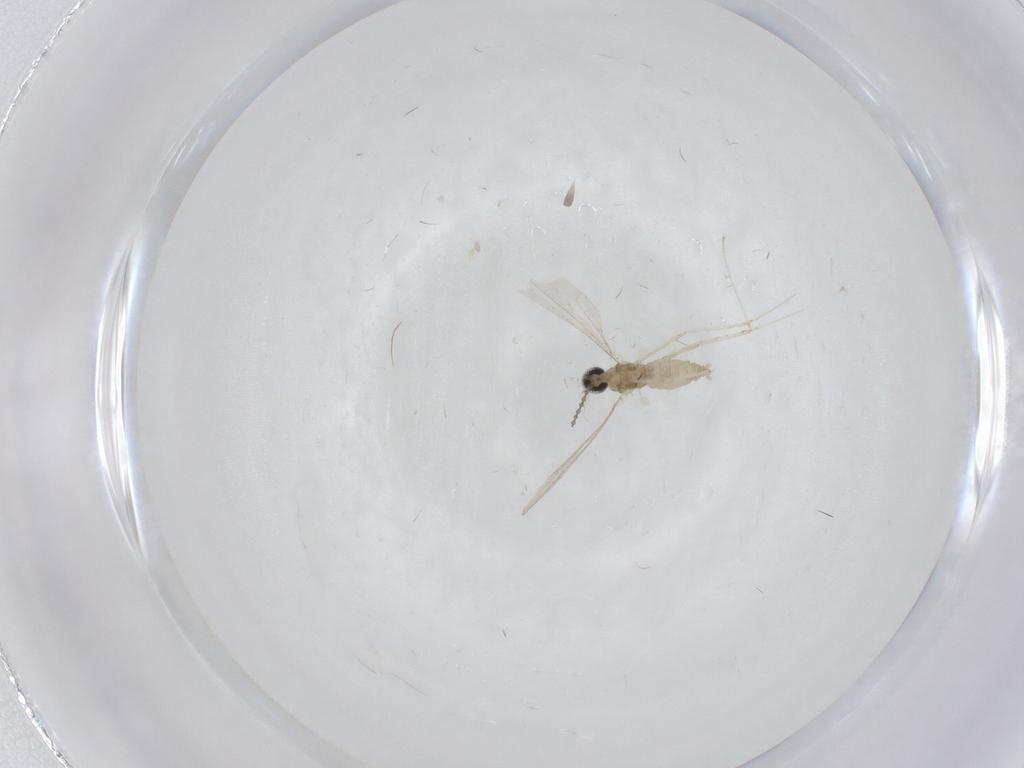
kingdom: Animalia
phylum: Arthropoda
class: Insecta
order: Diptera
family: Cecidomyiidae
